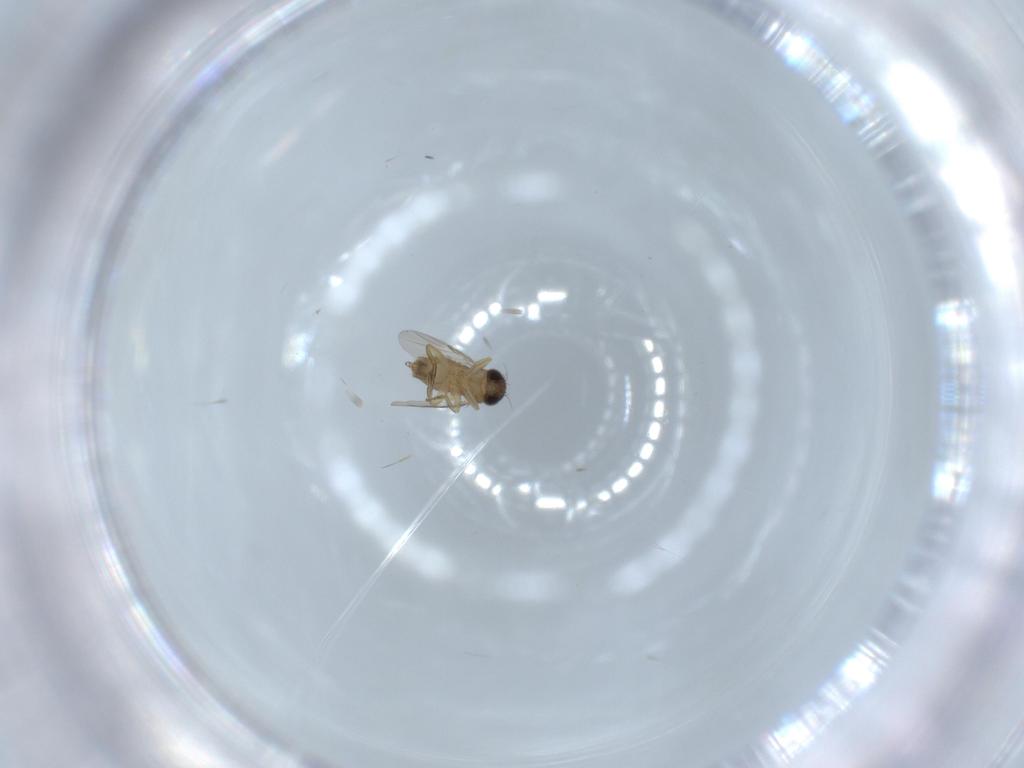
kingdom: Animalia
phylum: Arthropoda
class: Insecta
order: Diptera
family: Phoridae
